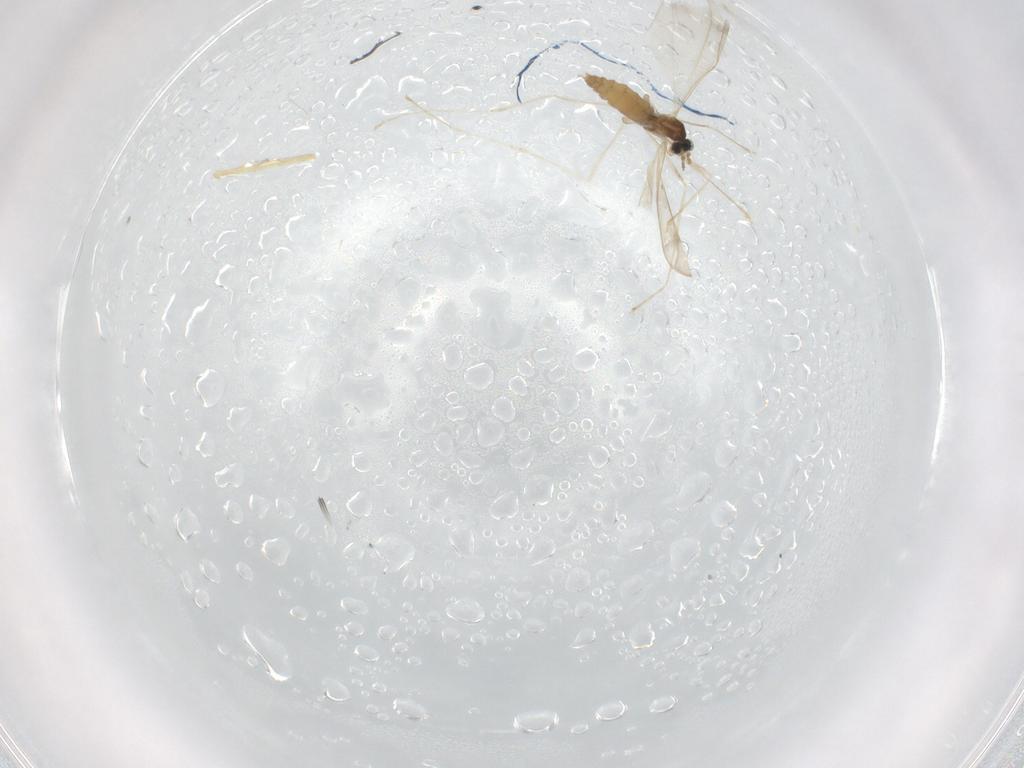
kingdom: Animalia
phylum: Arthropoda
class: Insecta
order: Diptera
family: Cecidomyiidae
